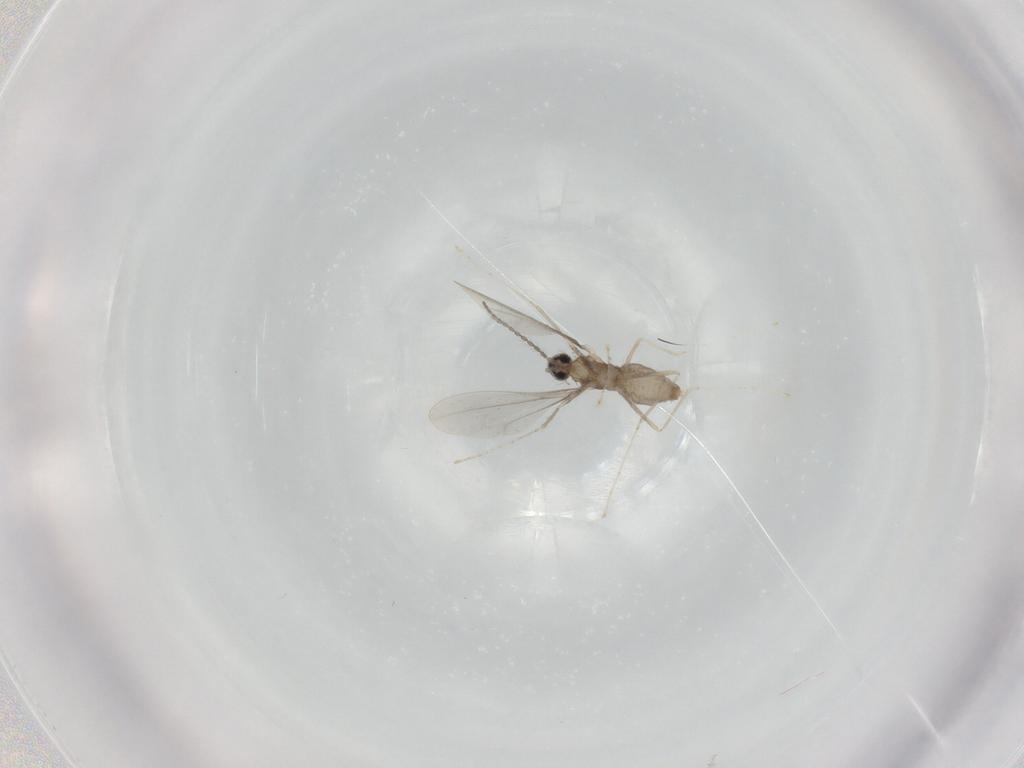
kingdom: Animalia
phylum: Arthropoda
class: Insecta
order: Diptera
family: Cecidomyiidae
